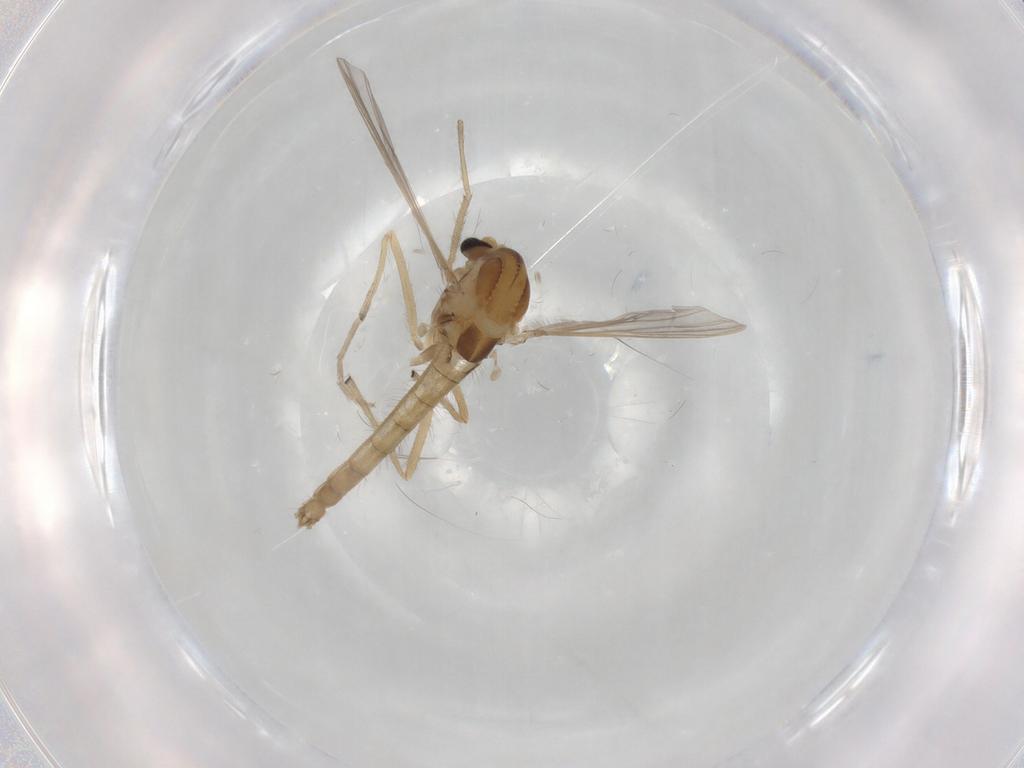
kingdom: Animalia
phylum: Arthropoda
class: Insecta
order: Diptera
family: Chironomidae
